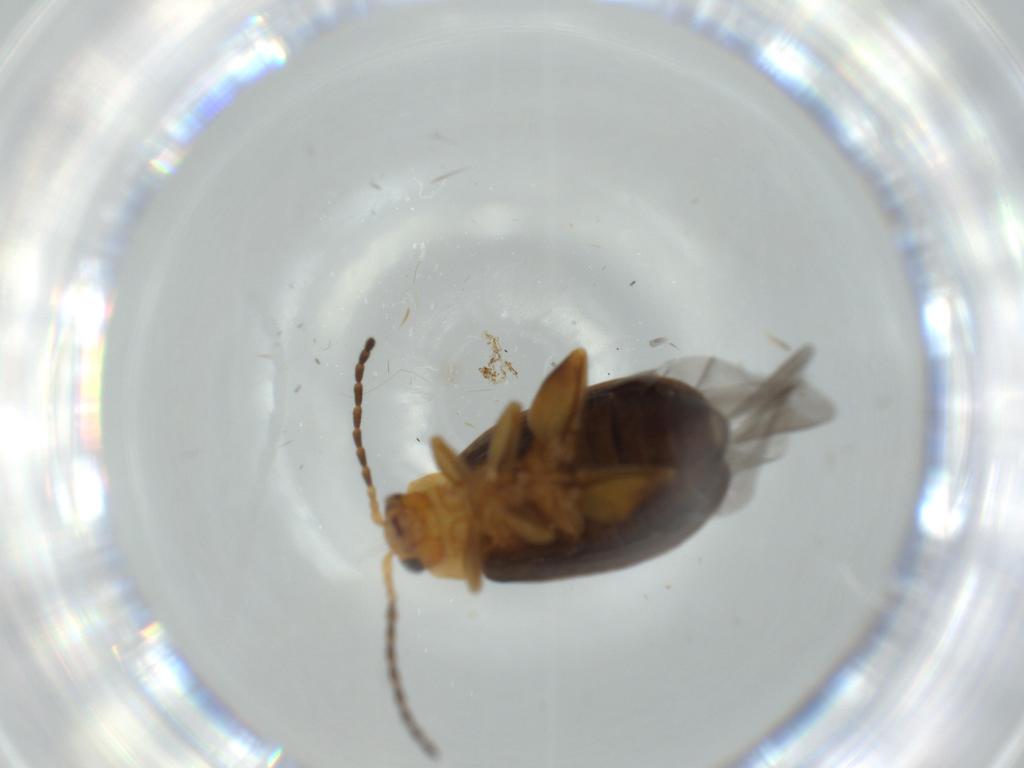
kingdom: Animalia
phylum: Arthropoda
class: Insecta
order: Coleoptera
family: Chrysomelidae
